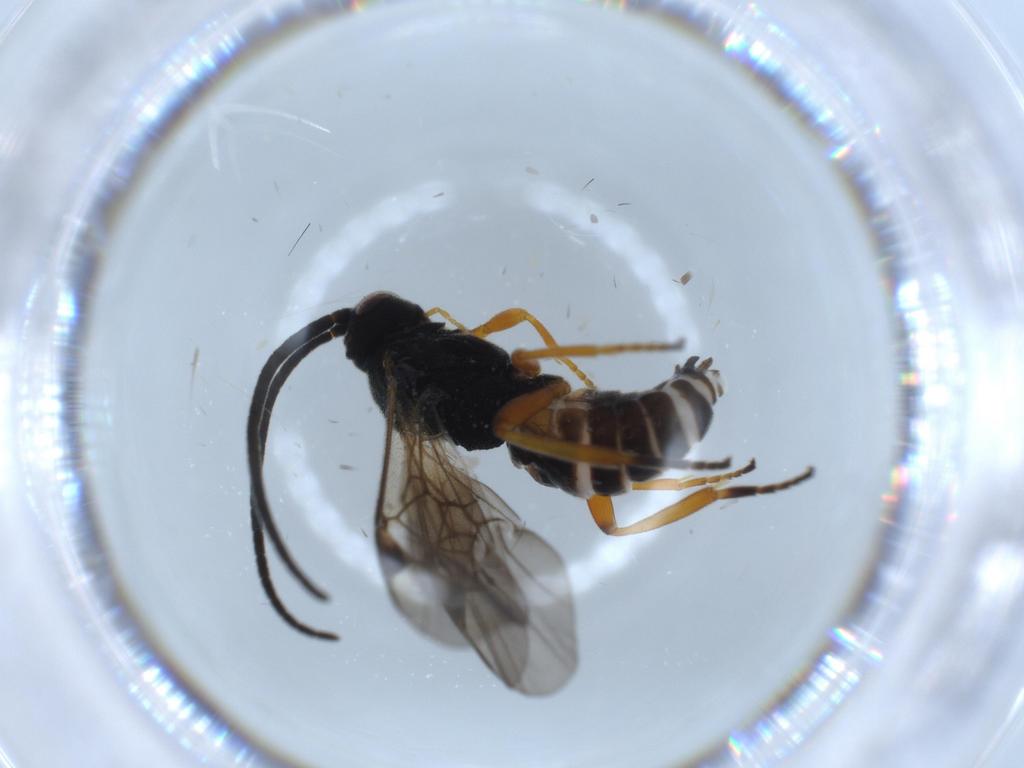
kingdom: Animalia
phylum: Arthropoda
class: Insecta
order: Hymenoptera
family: Braconidae
